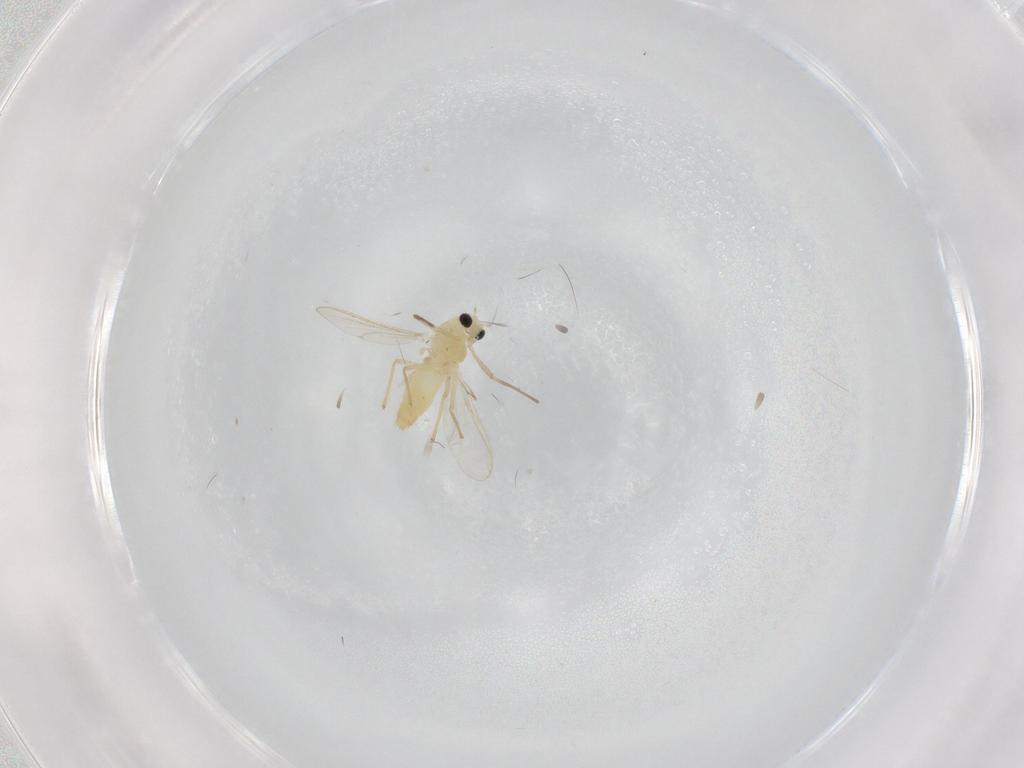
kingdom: Animalia
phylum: Arthropoda
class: Insecta
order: Diptera
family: Chironomidae
